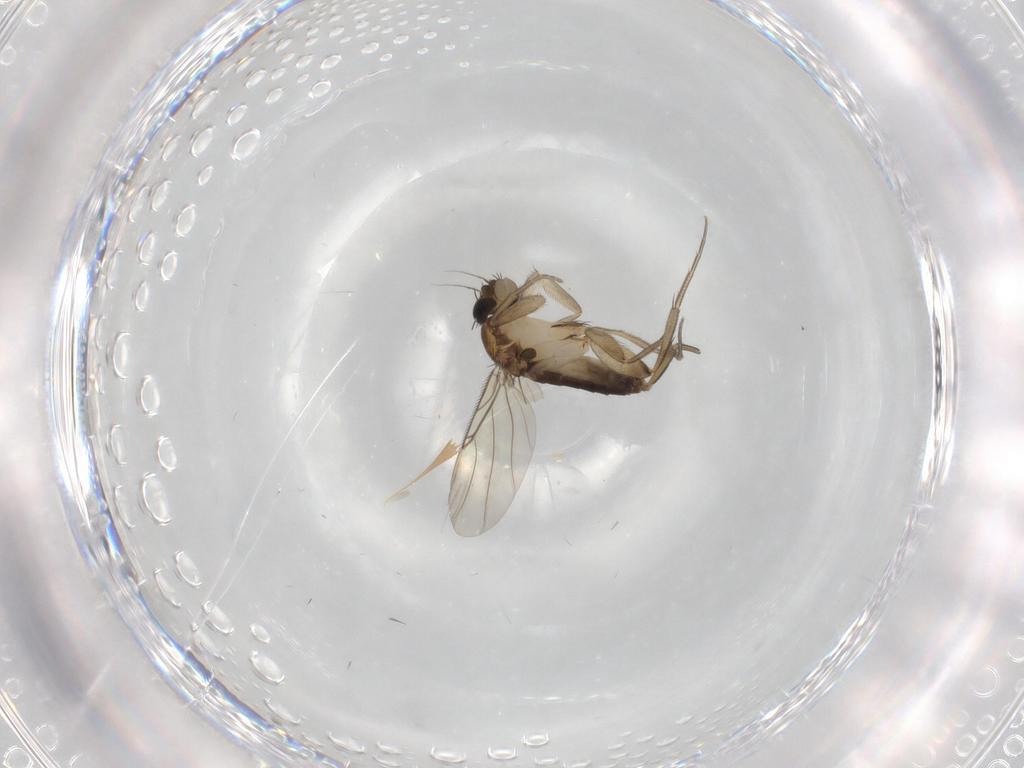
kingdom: Animalia
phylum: Arthropoda
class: Insecta
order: Diptera
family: Phoridae
